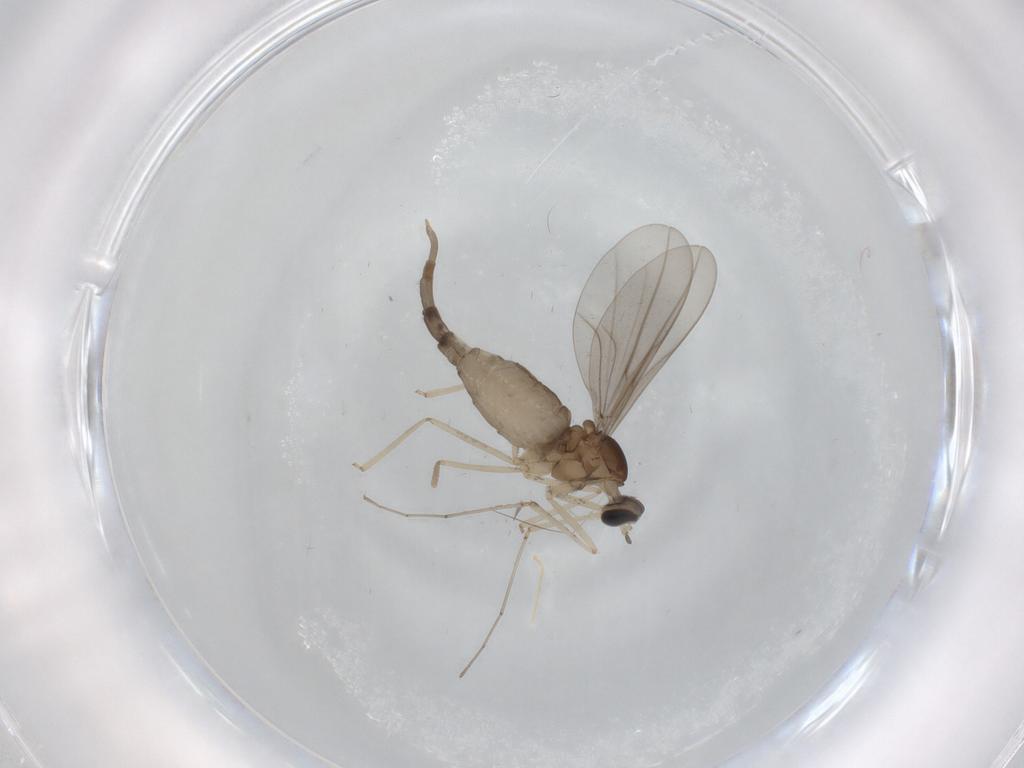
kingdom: Animalia
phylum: Arthropoda
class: Insecta
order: Diptera
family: Cecidomyiidae
